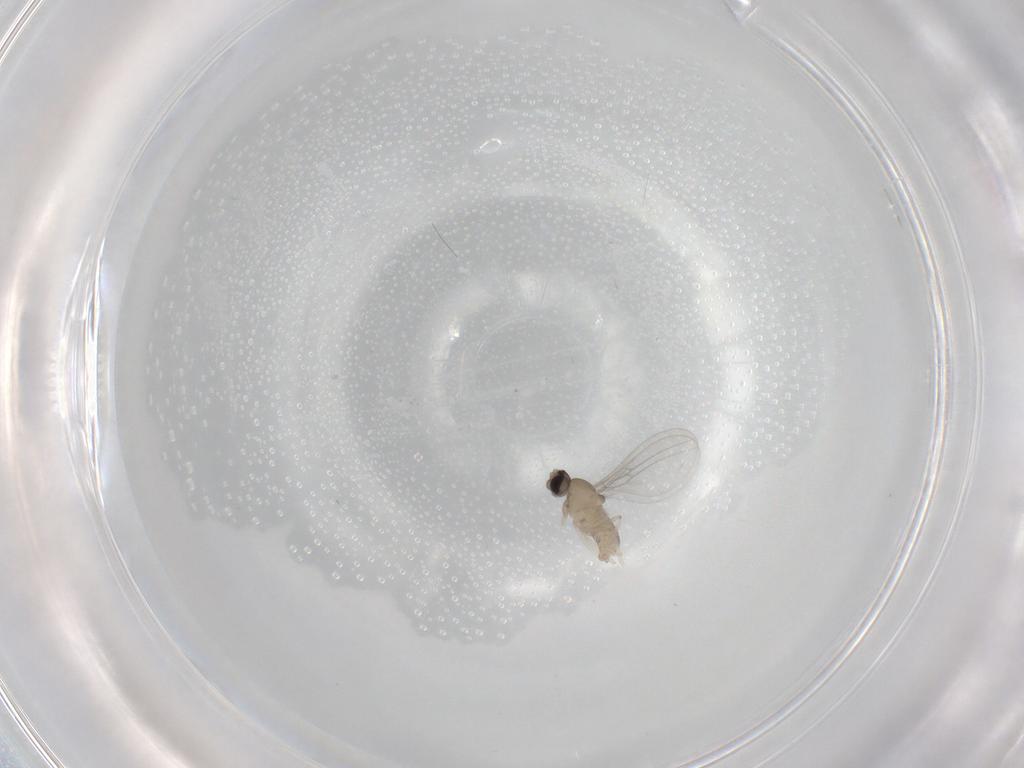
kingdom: Animalia
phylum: Arthropoda
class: Insecta
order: Diptera
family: Cecidomyiidae
